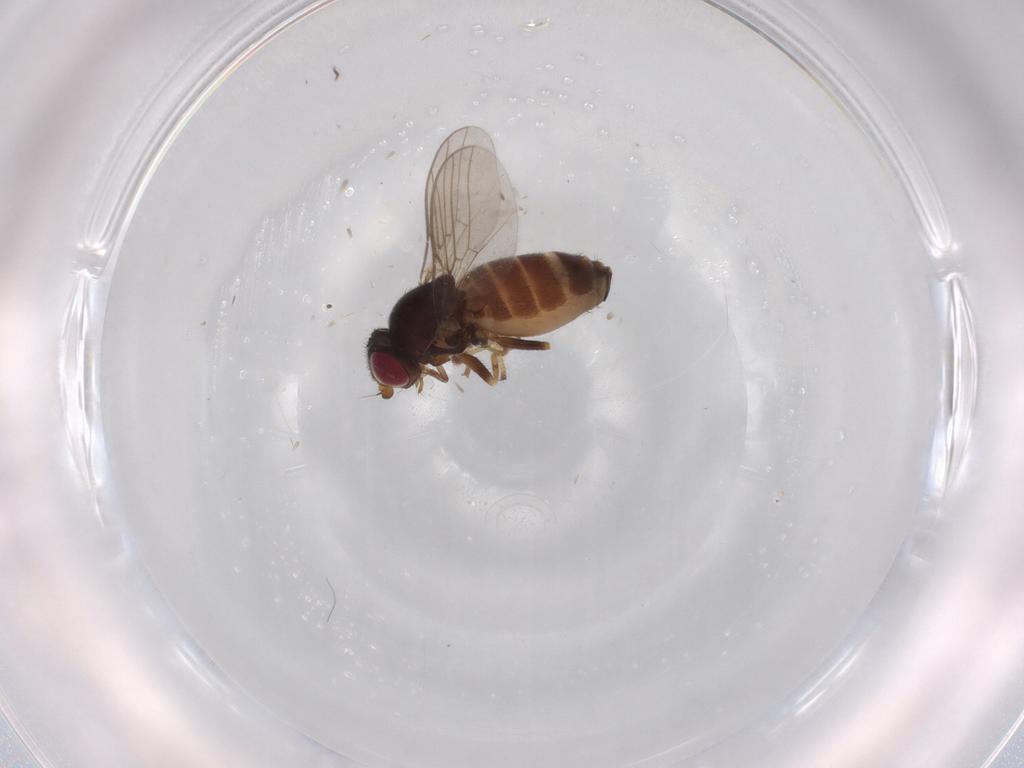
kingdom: Animalia
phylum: Arthropoda
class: Insecta
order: Diptera
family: Chloropidae
